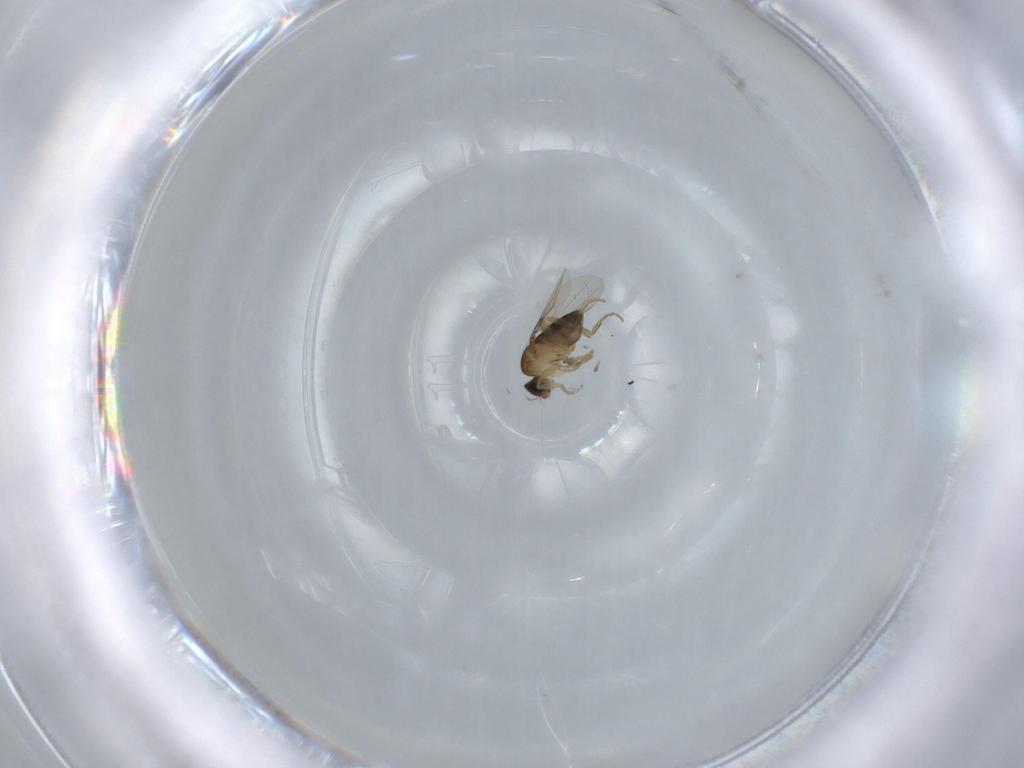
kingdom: Animalia
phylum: Arthropoda
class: Insecta
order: Diptera
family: Phoridae
